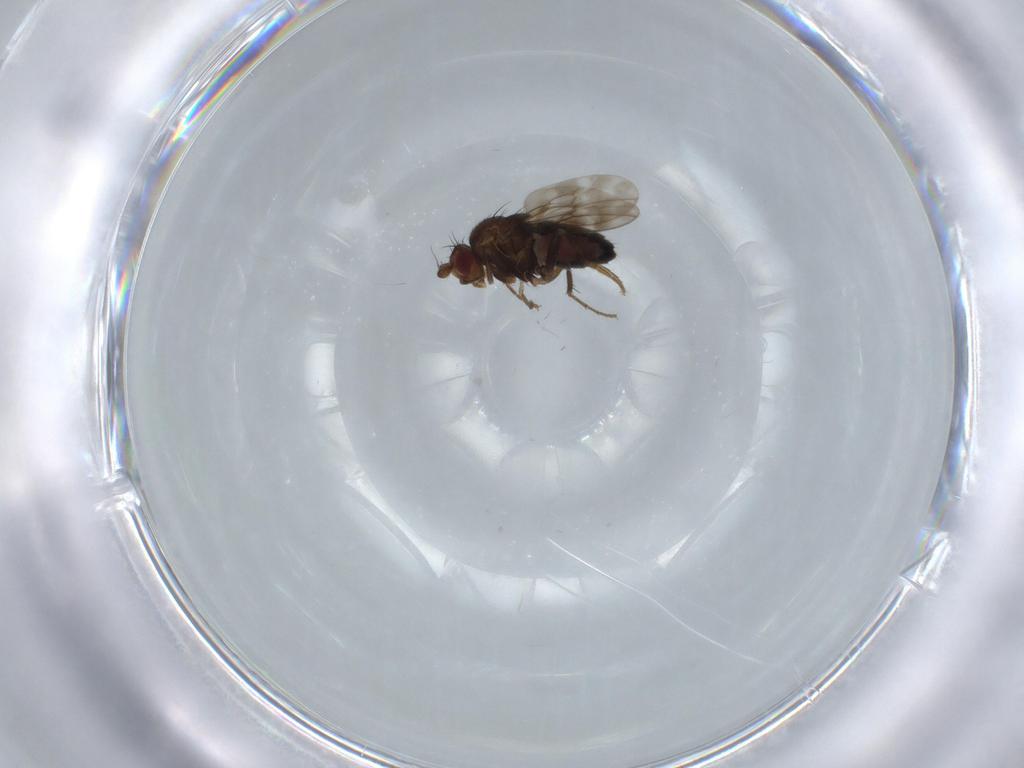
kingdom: Animalia
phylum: Arthropoda
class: Insecta
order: Diptera
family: Sphaeroceridae
